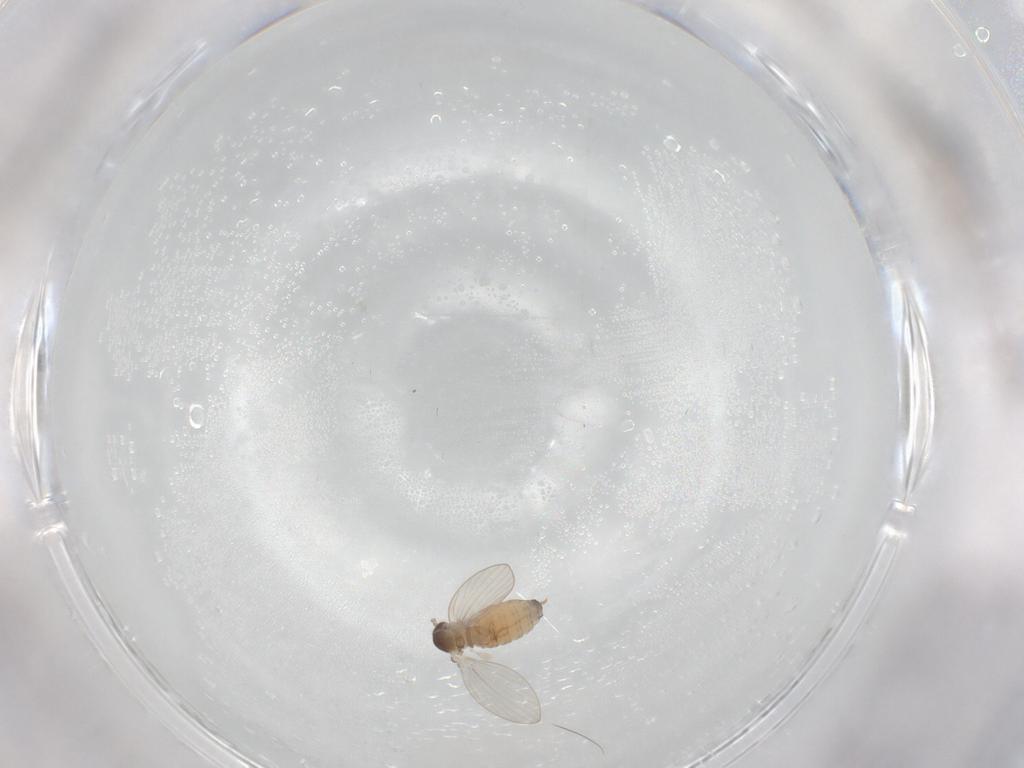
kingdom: Animalia
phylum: Arthropoda
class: Insecta
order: Diptera
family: Psychodidae
